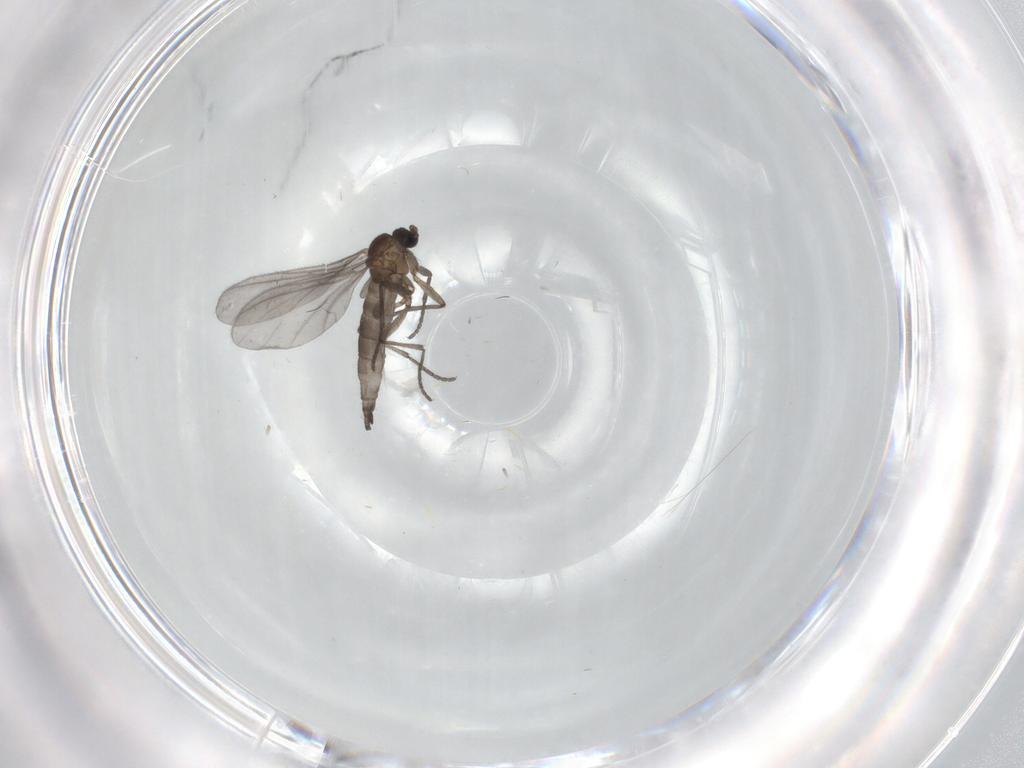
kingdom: Animalia
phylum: Arthropoda
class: Insecta
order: Diptera
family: Sciaridae
